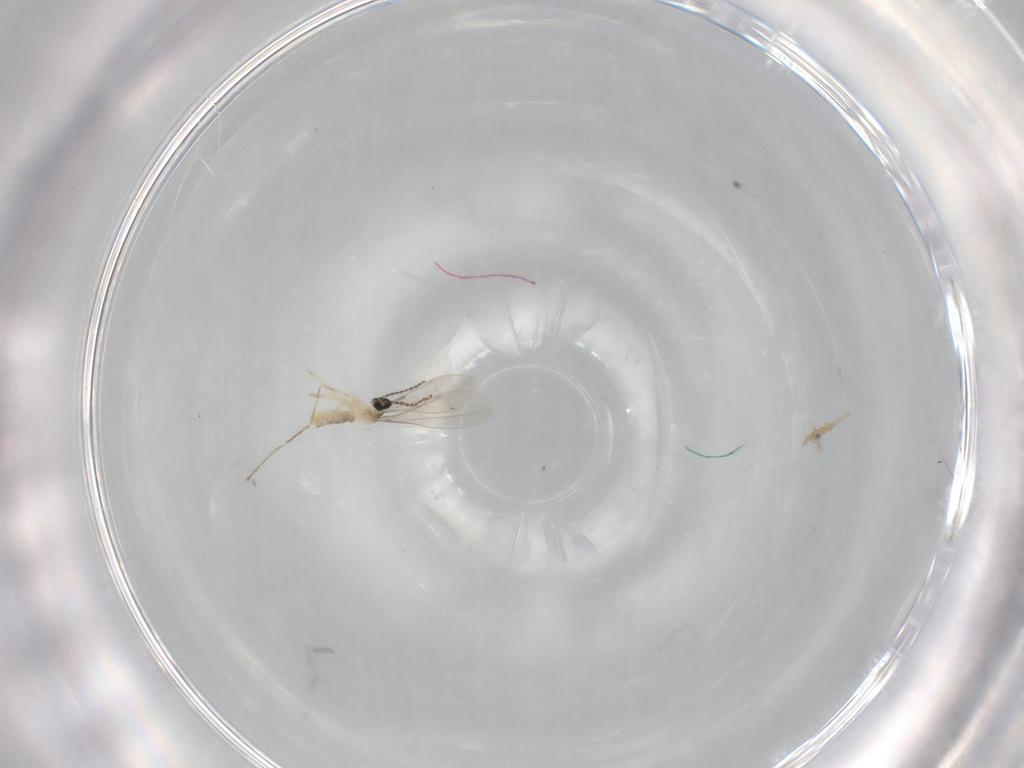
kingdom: Animalia
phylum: Arthropoda
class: Insecta
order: Diptera
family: Cecidomyiidae
